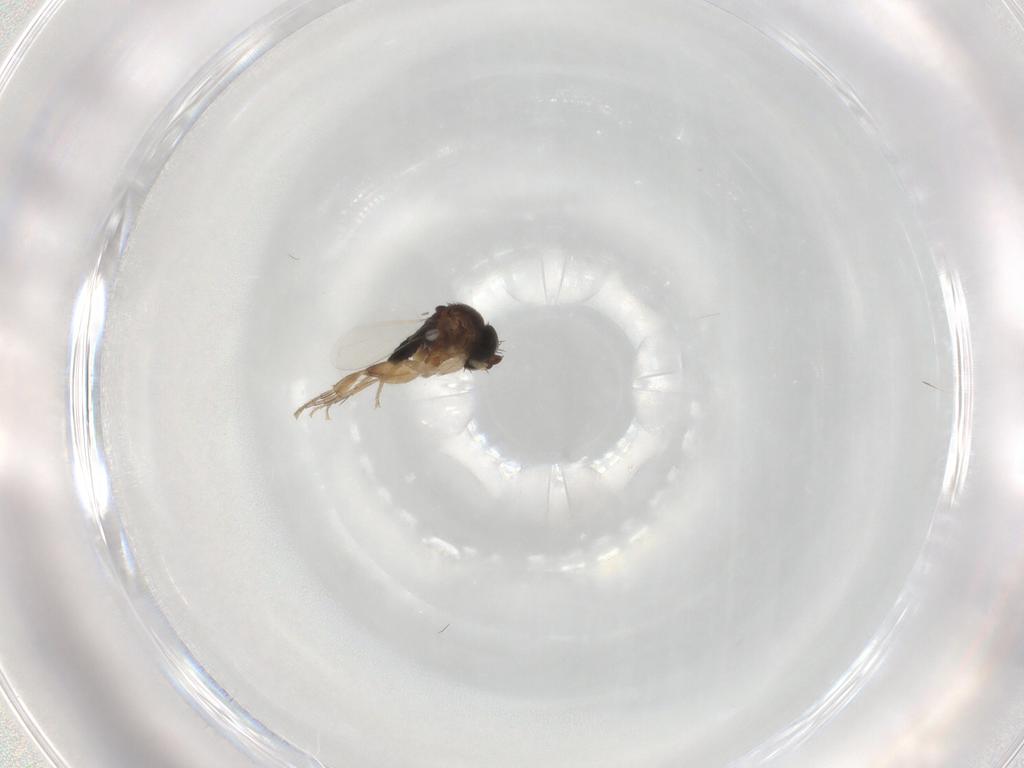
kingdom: Animalia
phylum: Arthropoda
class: Insecta
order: Diptera
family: Phoridae
